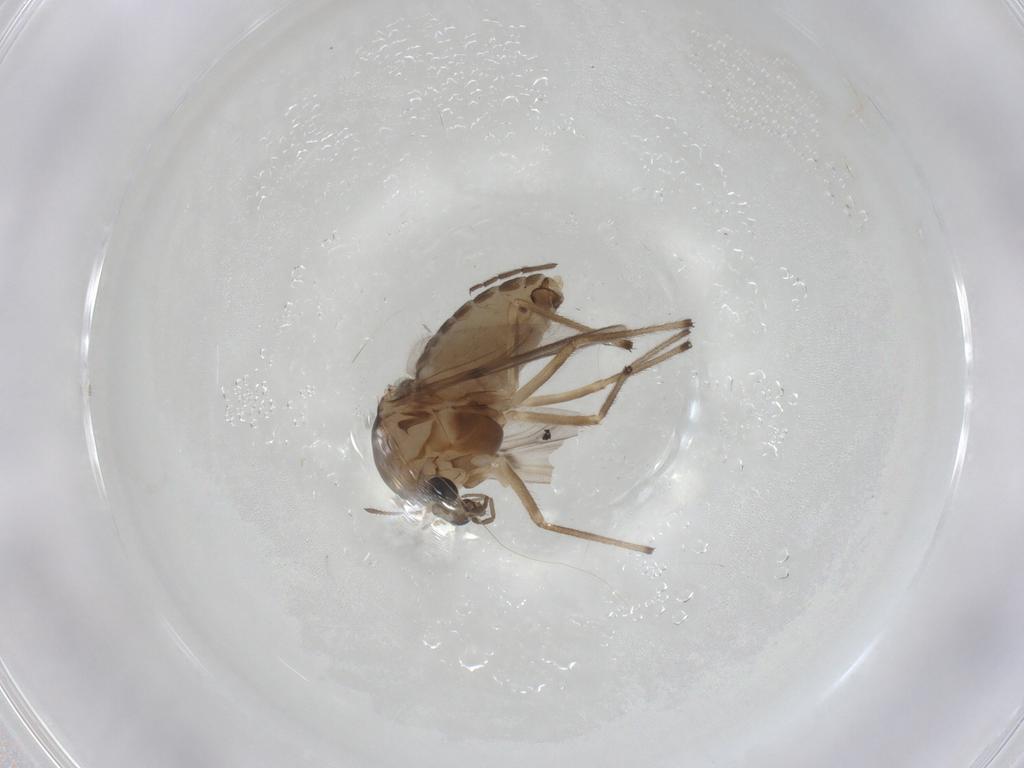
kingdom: Animalia
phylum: Arthropoda
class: Insecta
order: Diptera
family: Chironomidae
